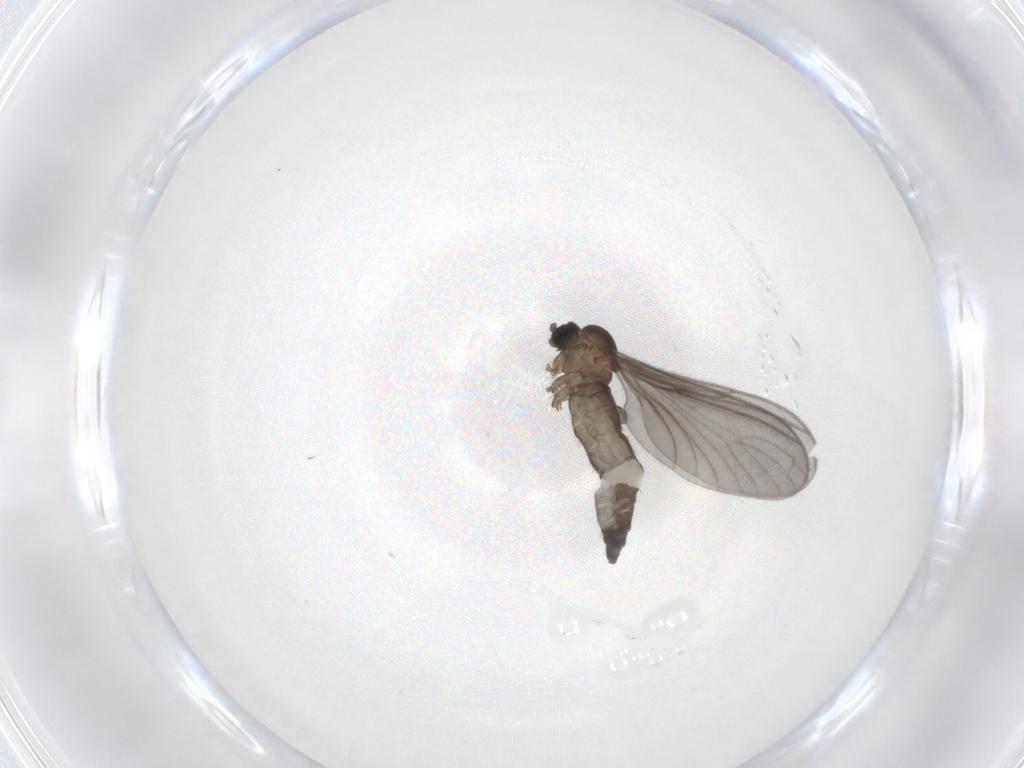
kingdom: Animalia
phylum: Arthropoda
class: Insecta
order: Diptera
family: Sciaridae
